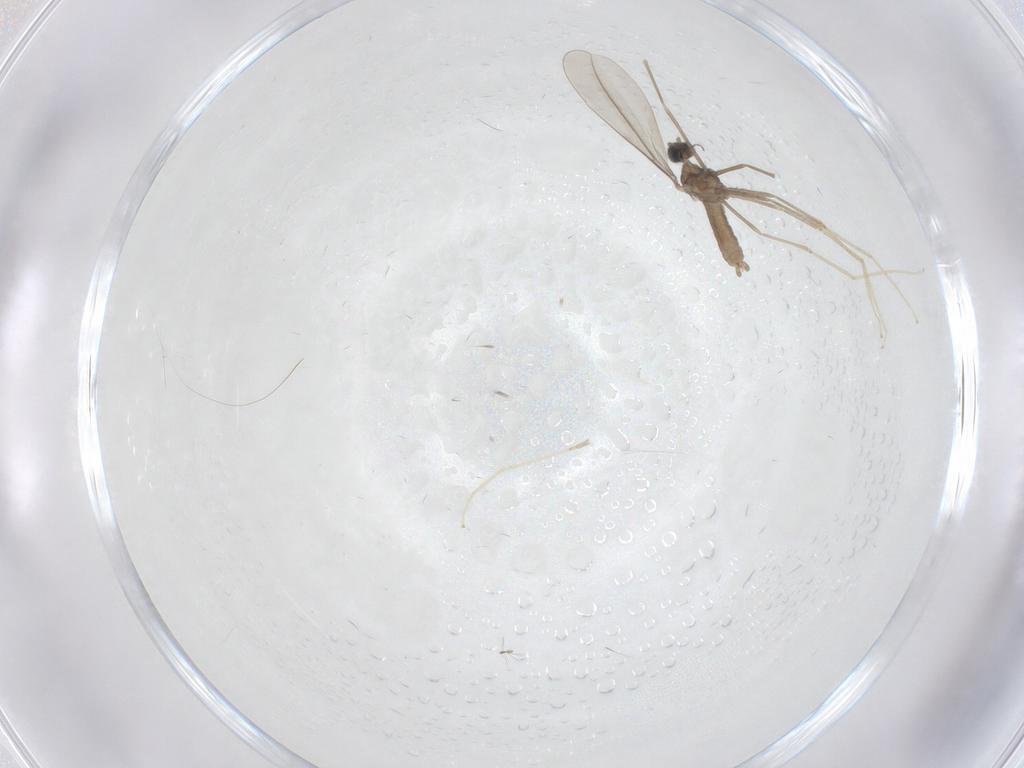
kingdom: Animalia
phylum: Arthropoda
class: Insecta
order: Diptera
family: Cecidomyiidae
